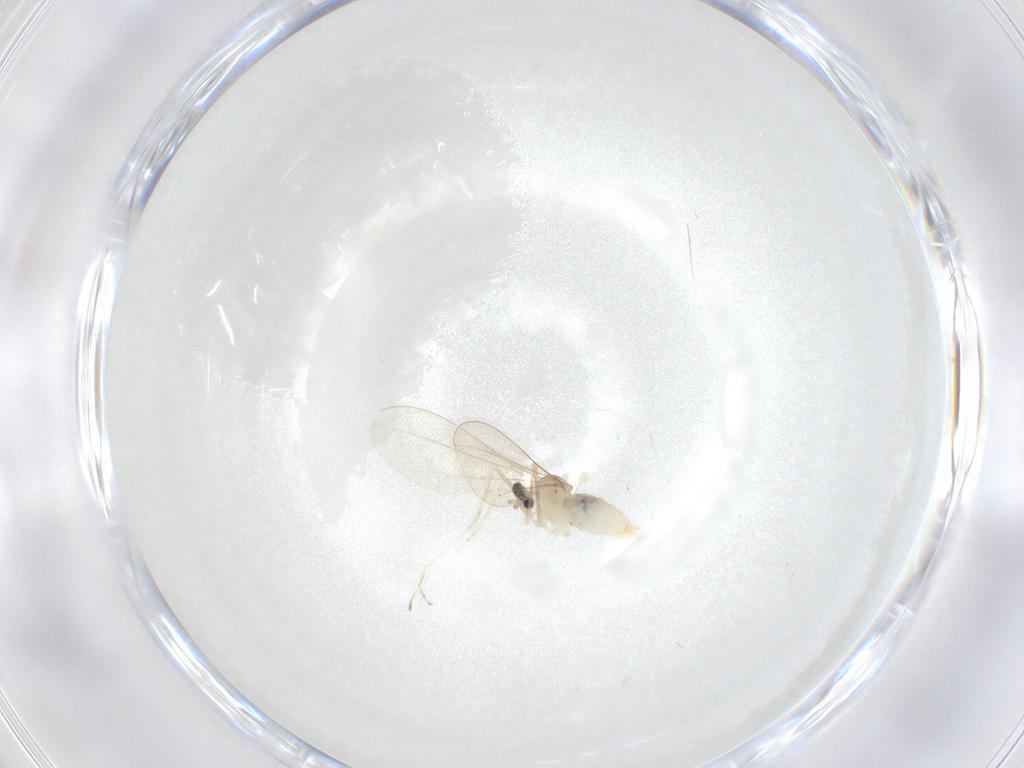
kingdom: Animalia
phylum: Arthropoda
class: Insecta
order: Diptera
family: Cecidomyiidae
